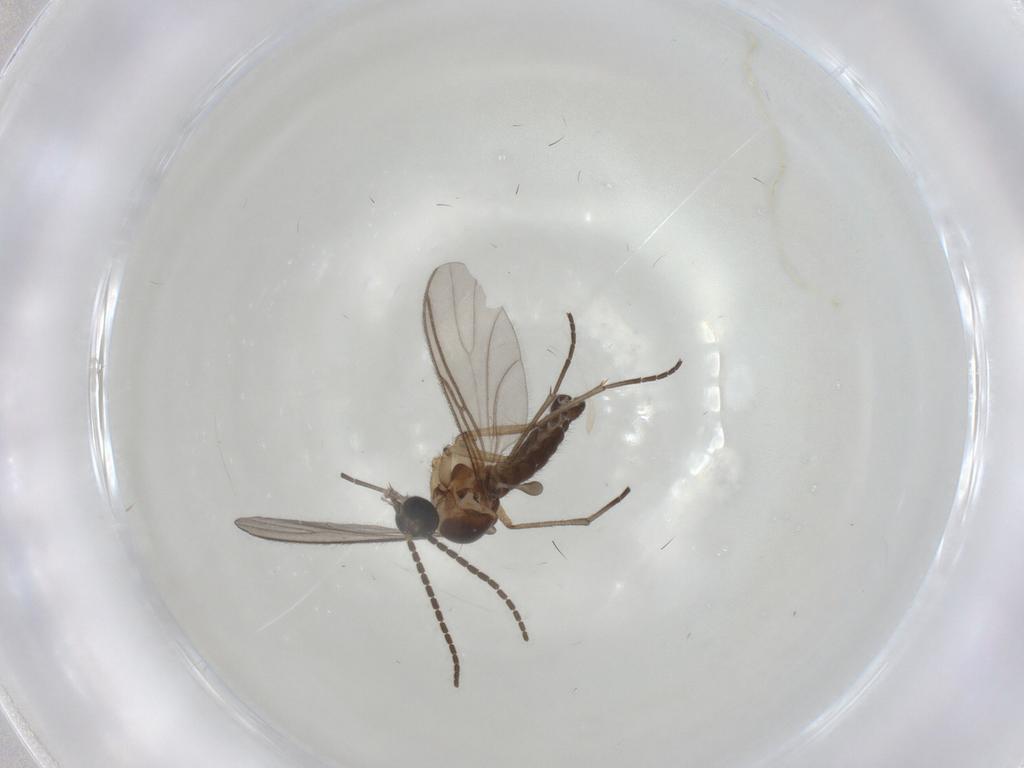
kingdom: Animalia
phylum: Arthropoda
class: Insecta
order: Diptera
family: Sciaridae
